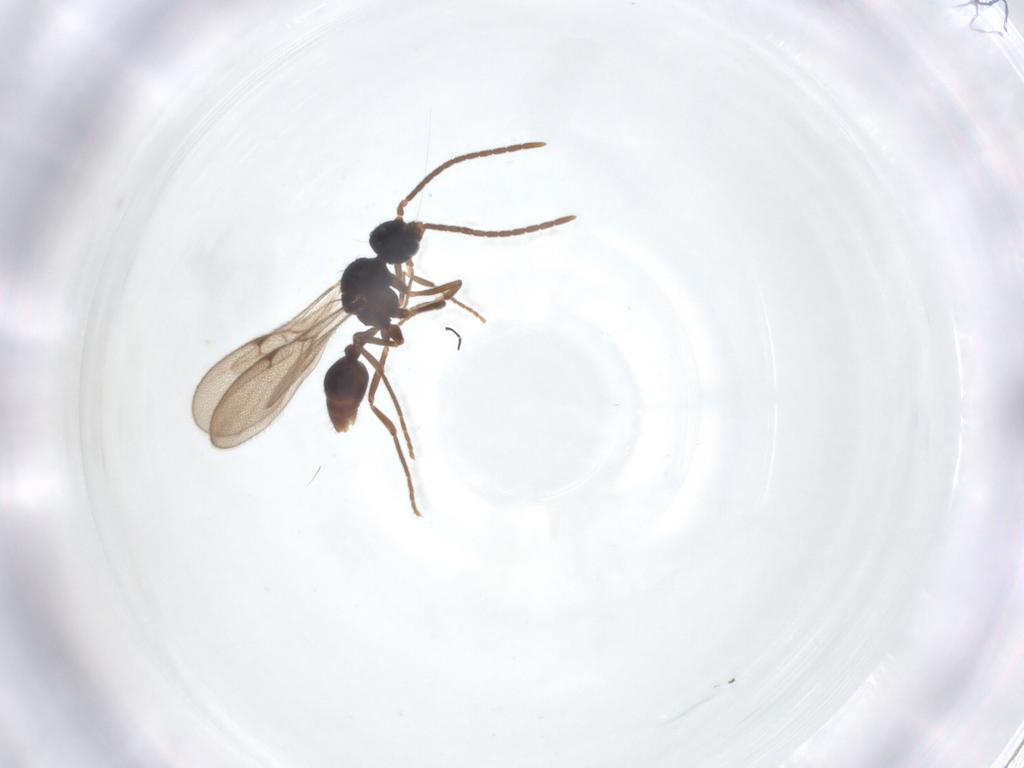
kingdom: Animalia
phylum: Arthropoda
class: Insecta
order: Hymenoptera
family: Formicidae
